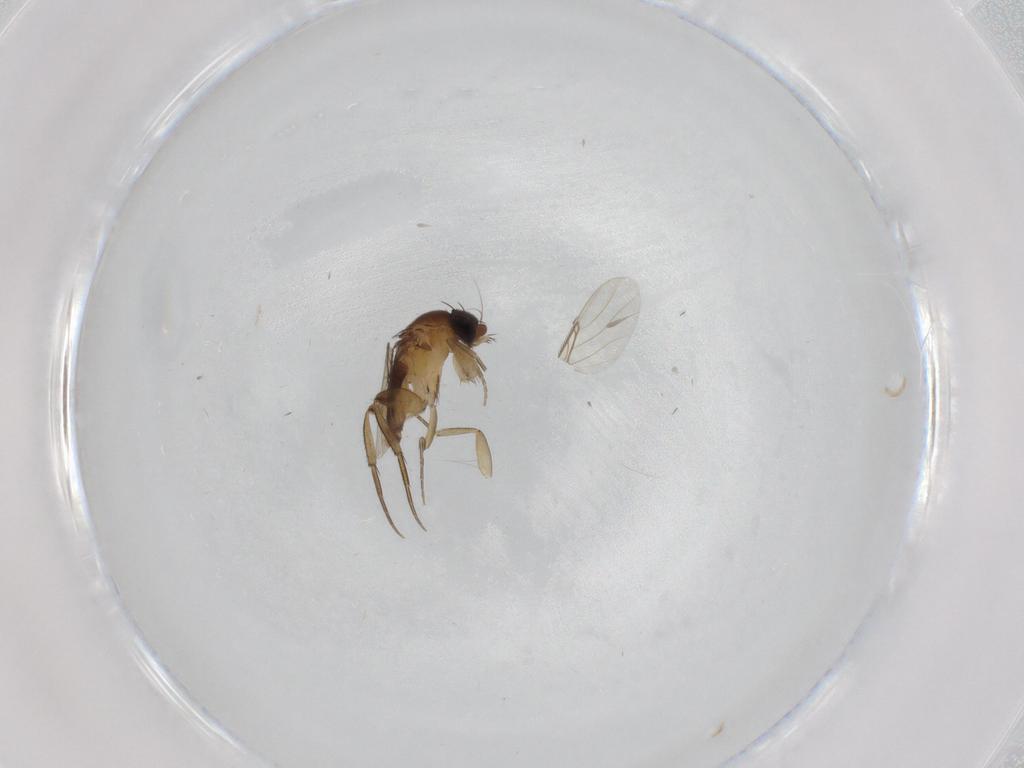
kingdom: Animalia
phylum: Arthropoda
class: Insecta
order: Diptera
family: Phoridae
